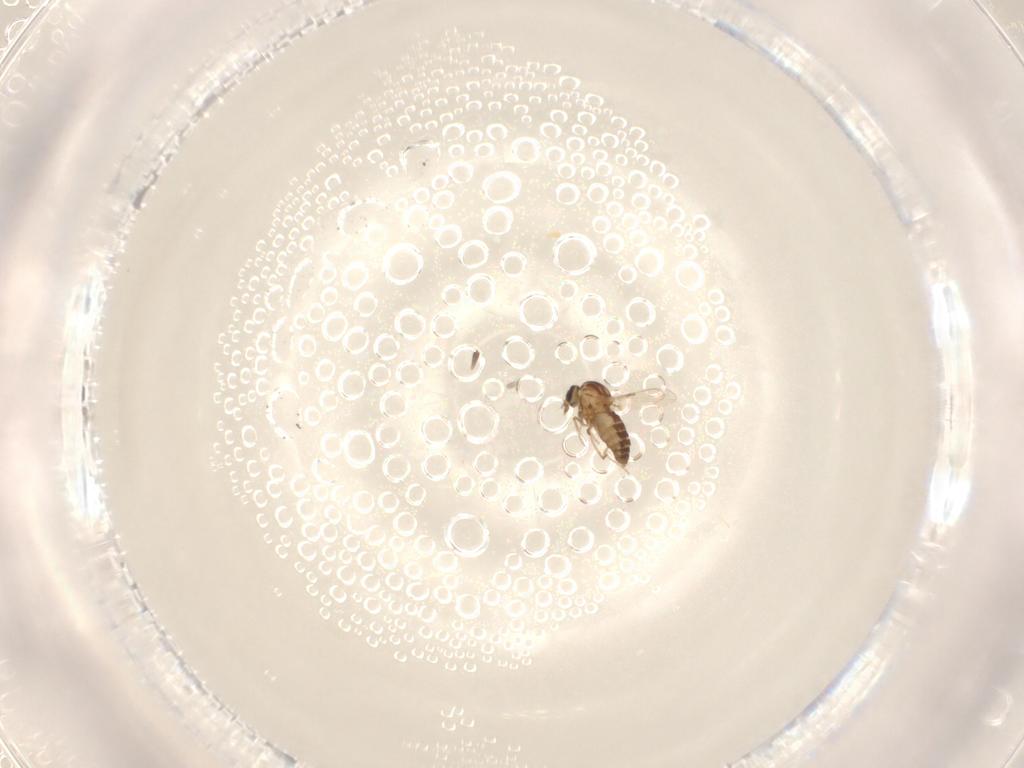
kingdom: Animalia
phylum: Arthropoda
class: Insecta
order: Diptera
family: Ceratopogonidae
